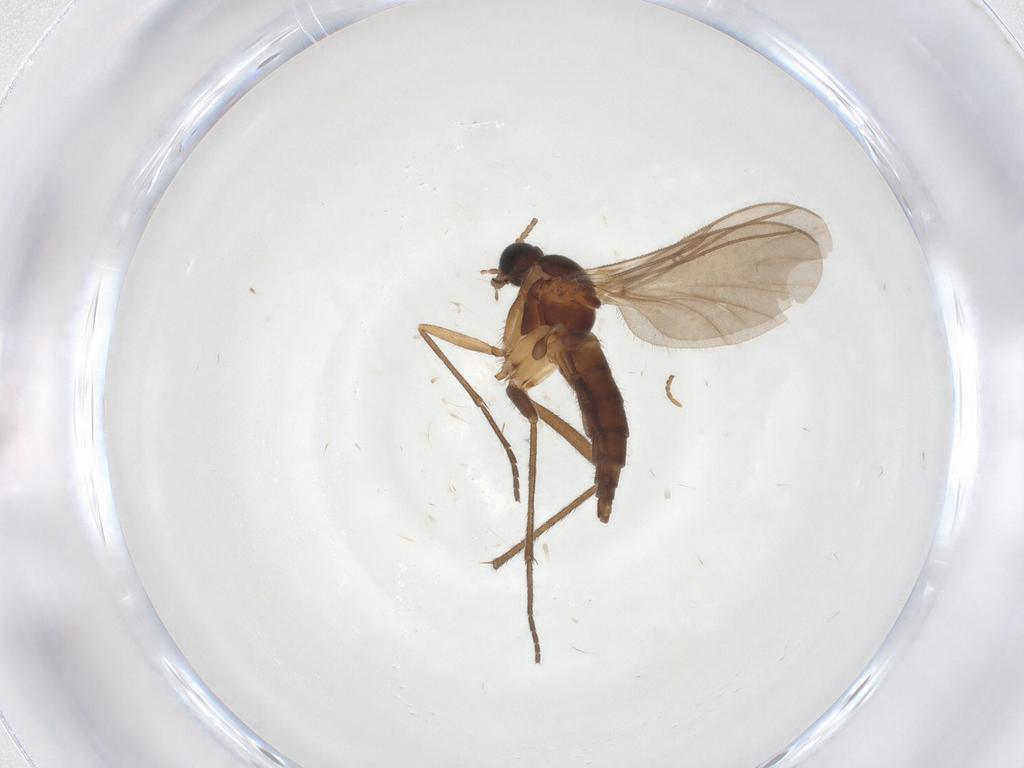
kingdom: Animalia
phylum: Arthropoda
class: Insecta
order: Diptera
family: Sciaridae
